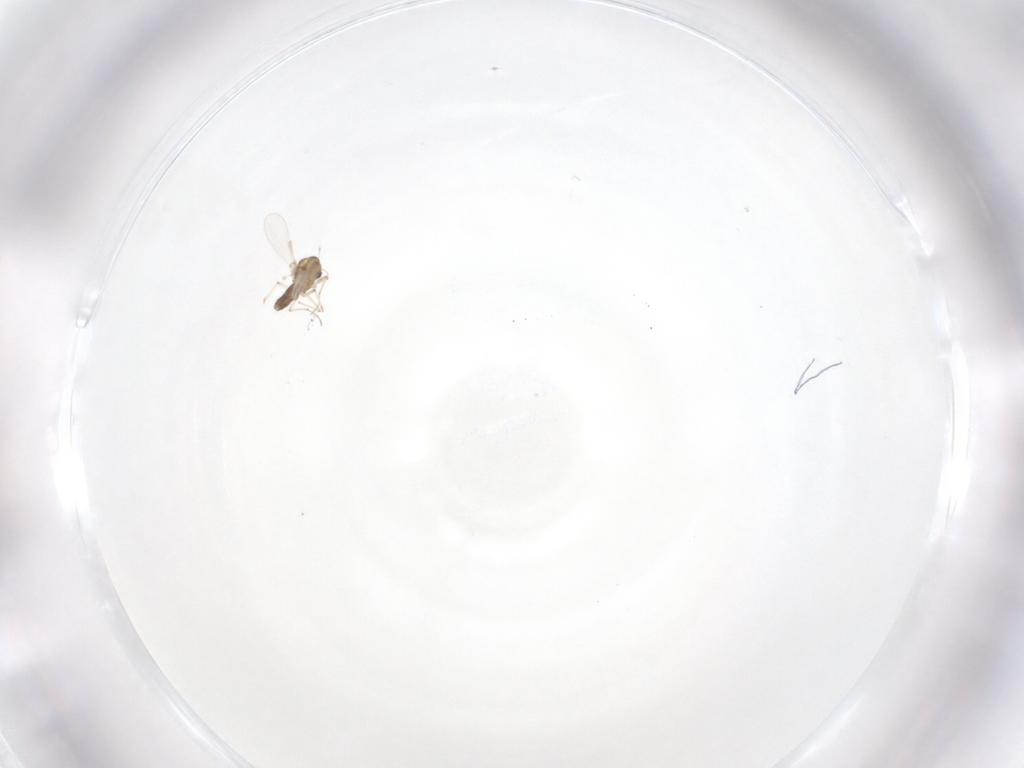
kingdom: Animalia
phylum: Arthropoda
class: Insecta
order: Diptera
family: Chironomidae
